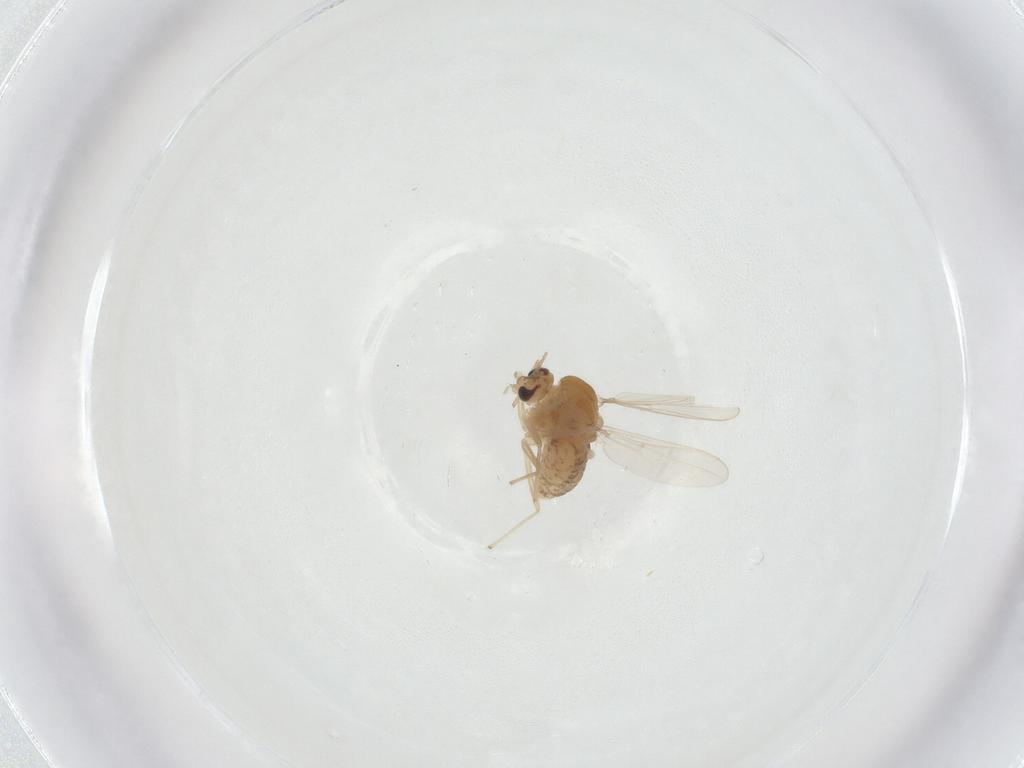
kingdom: Animalia
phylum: Arthropoda
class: Insecta
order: Diptera
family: Chironomidae
